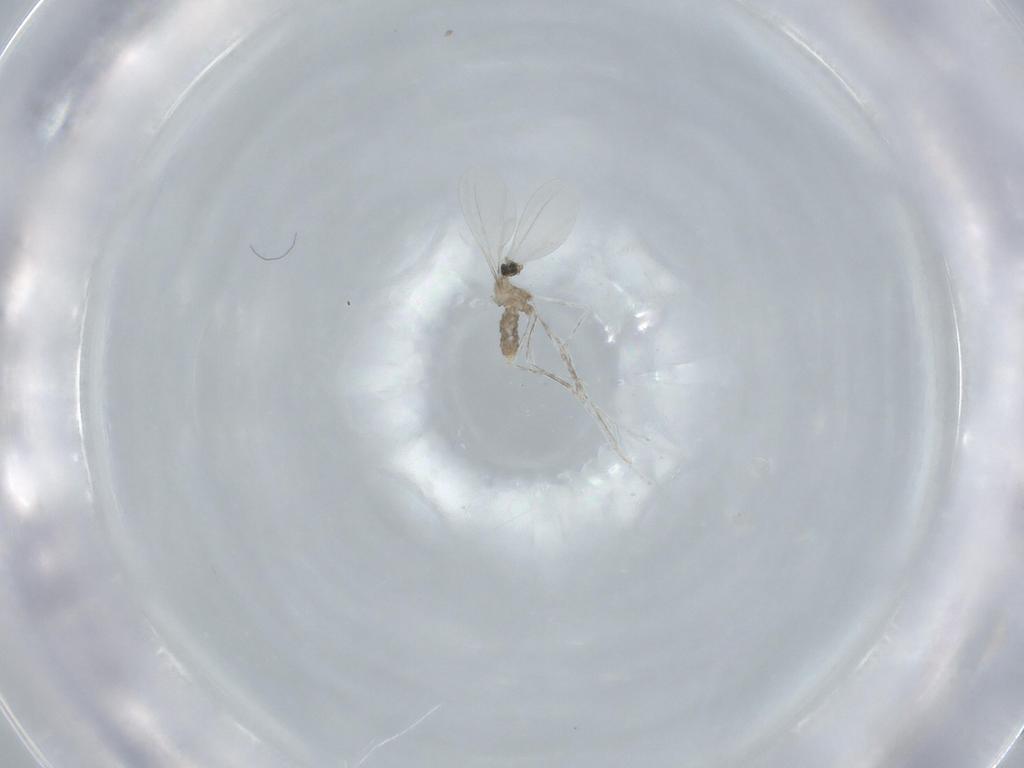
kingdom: Animalia
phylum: Arthropoda
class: Insecta
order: Diptera
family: Cecidomyiidae
